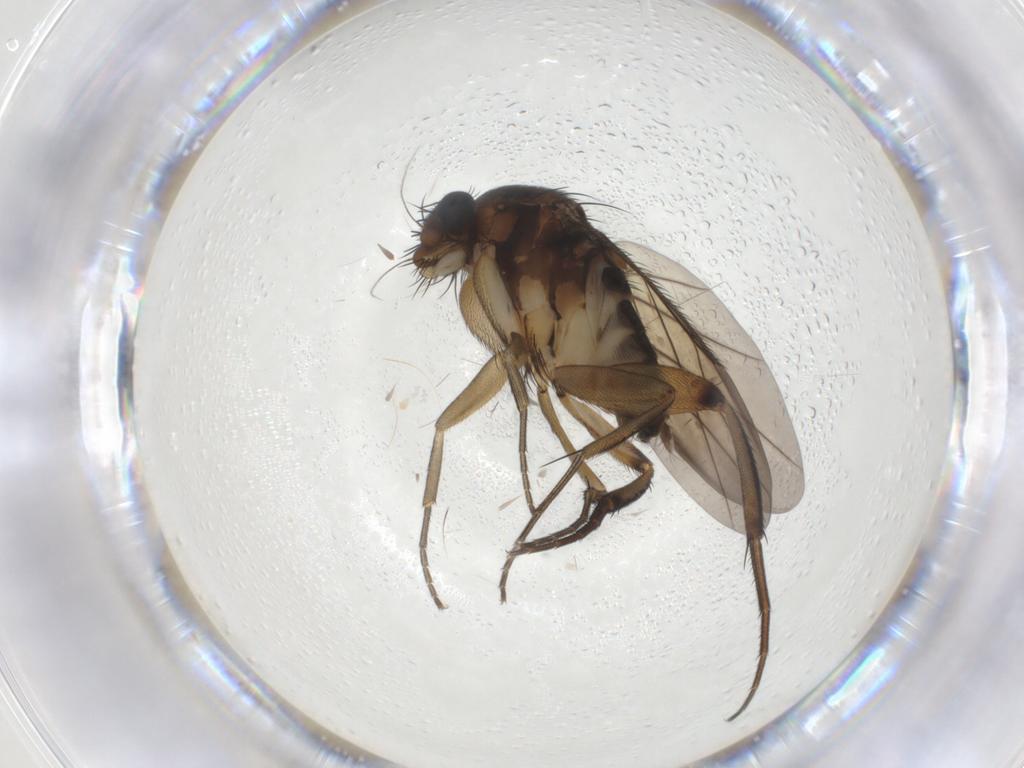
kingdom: Animalia
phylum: Arthropoda
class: Insecta
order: Diptera
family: Phoridae
